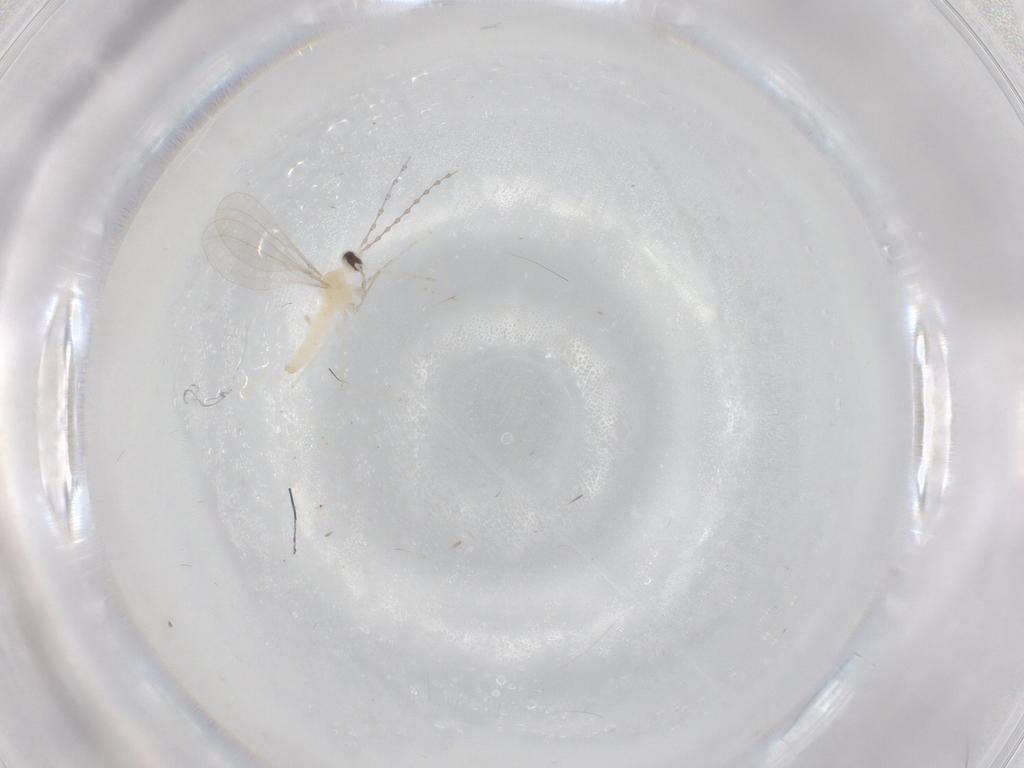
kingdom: Animalia
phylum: Arthropoda
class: Insecta
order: Diptera
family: Cecidomyiidae
